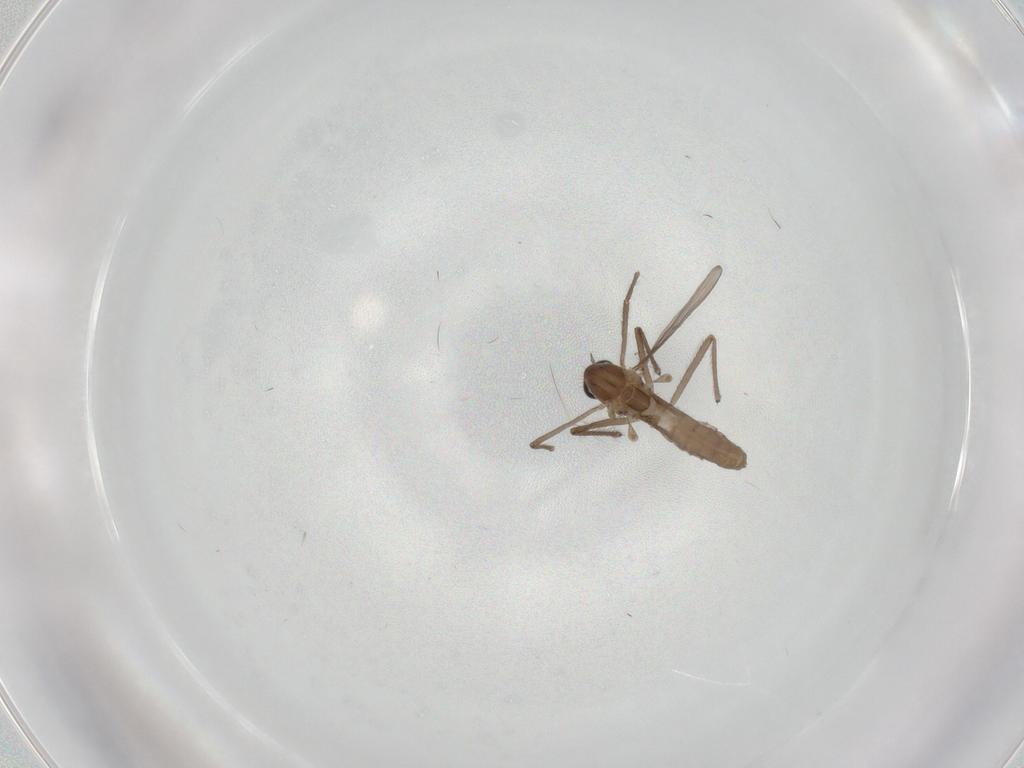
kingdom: Animalia
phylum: Arthropoda
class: Insecta
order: Diptera
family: Chironomidae
